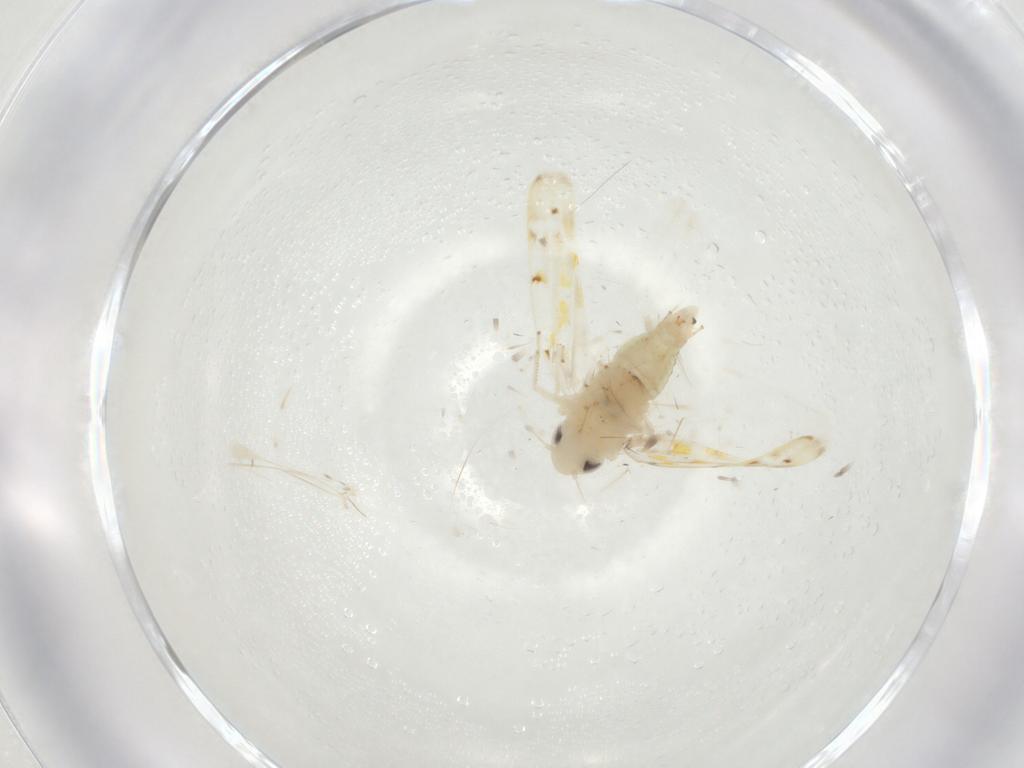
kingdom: Animalia
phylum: Arthropoda
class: Insecta
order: Hemiptera
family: Cicadellidae
